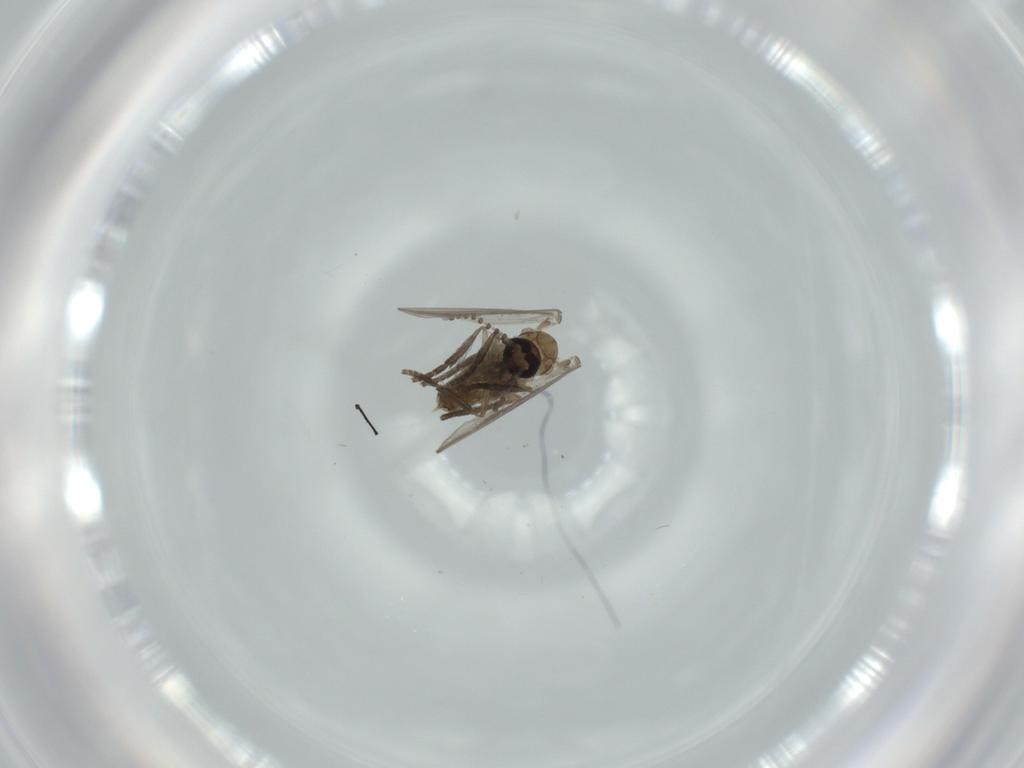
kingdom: Animalia
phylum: Arthropoda
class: Insecta
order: Diptera
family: Psychodidae
